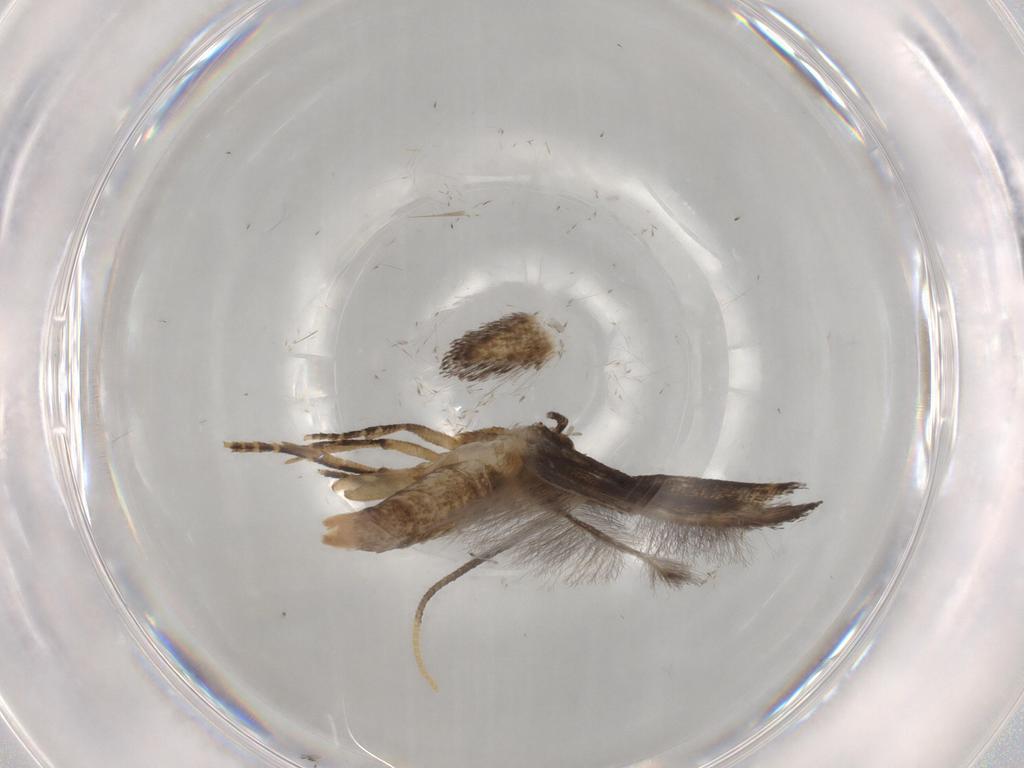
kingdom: Animalia
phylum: Arthropoda
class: Insecta
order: Lepidoptera
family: Cosmopterigidae
